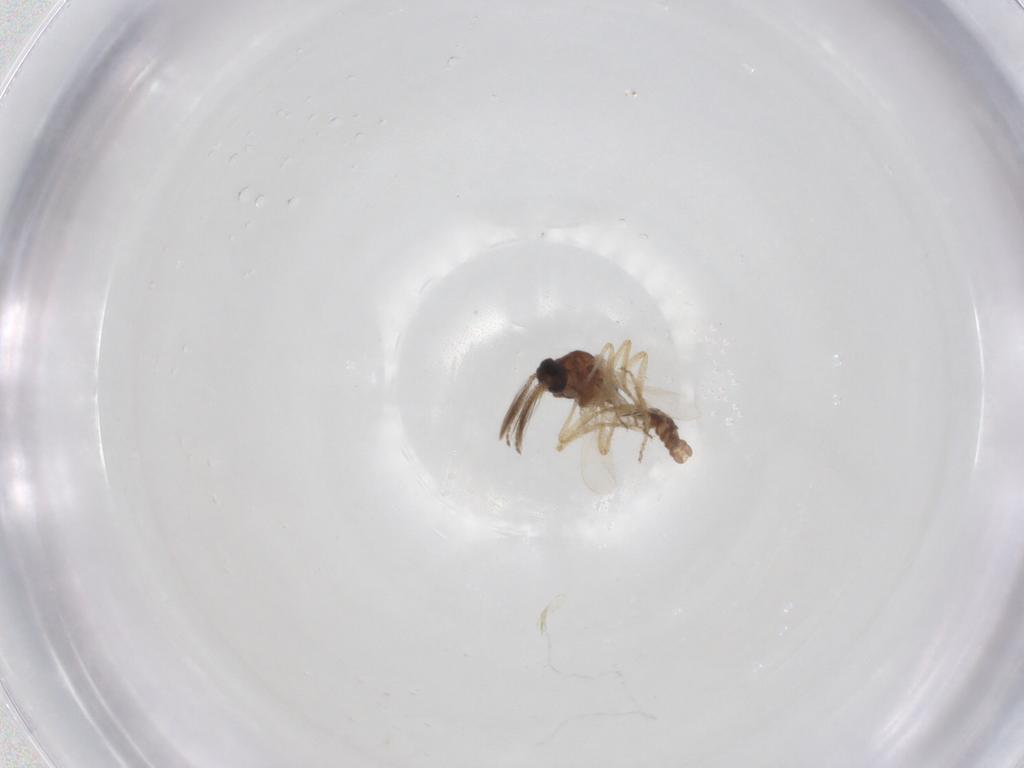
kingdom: Animalia
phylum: Arthropoda
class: Insecta
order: Diptera
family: Ceratopogonidae
